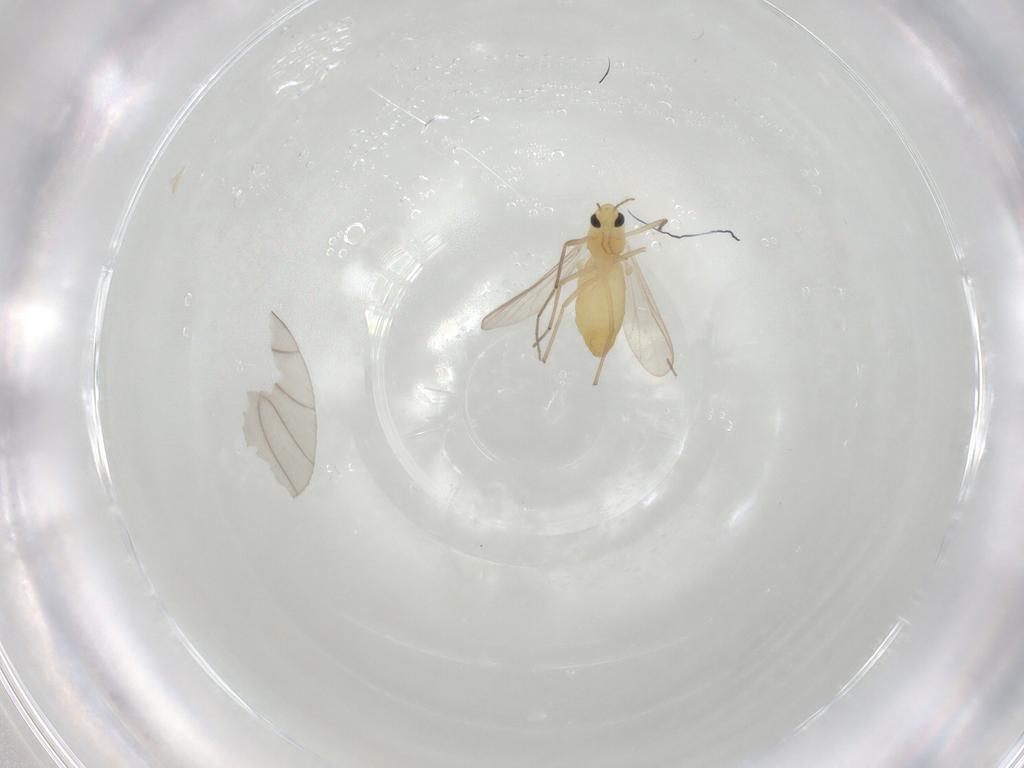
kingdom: Animalia
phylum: Arthropoda
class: Insecta
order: Diptera
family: Chironomidae
